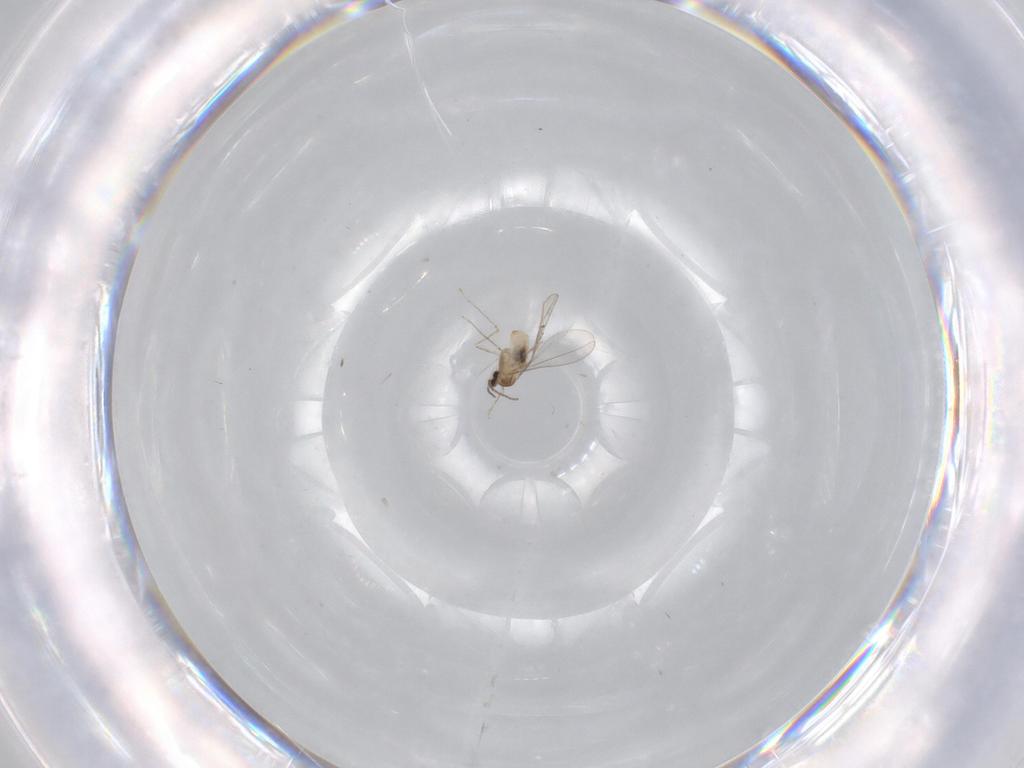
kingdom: Animalia
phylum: Arthropoda
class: Insecta
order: Diptera
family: Cecidomyiidae
